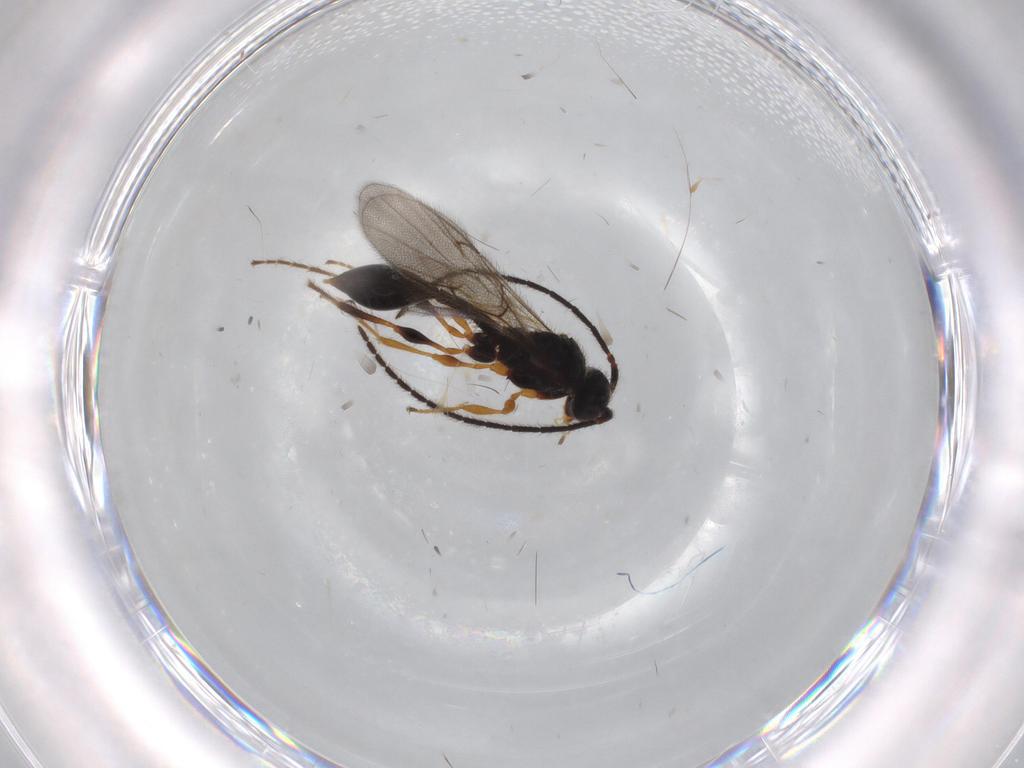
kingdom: Animalia
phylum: Arthropoda
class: Insecta
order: Hymenoptera
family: Diapriidae
